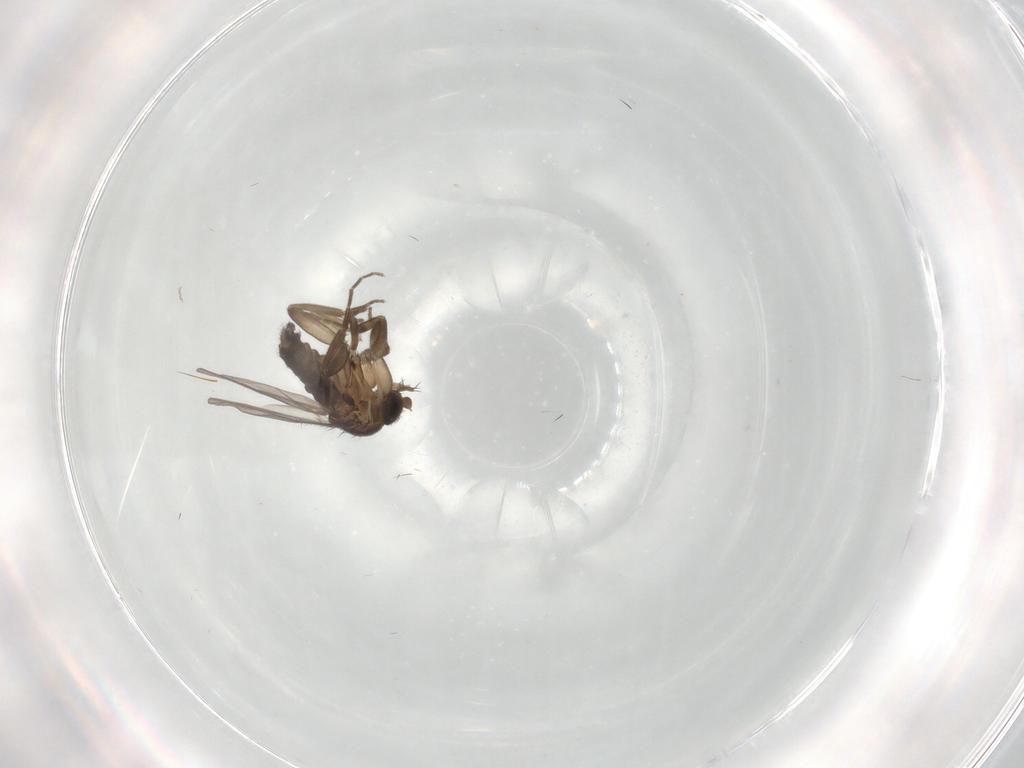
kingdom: Animalia
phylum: Arthropoda
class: Insecta
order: Diptera
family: Phoridae
